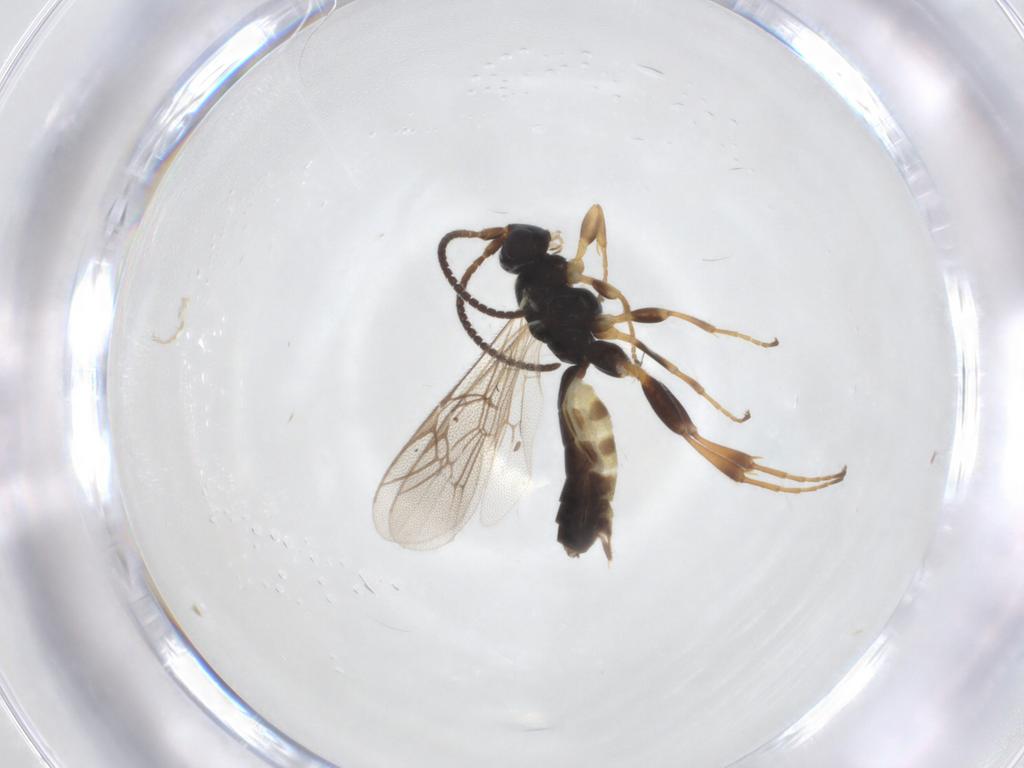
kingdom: Animalia
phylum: Arthropoda
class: Insecta
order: Hymenoptera
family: Ichneumonidae
